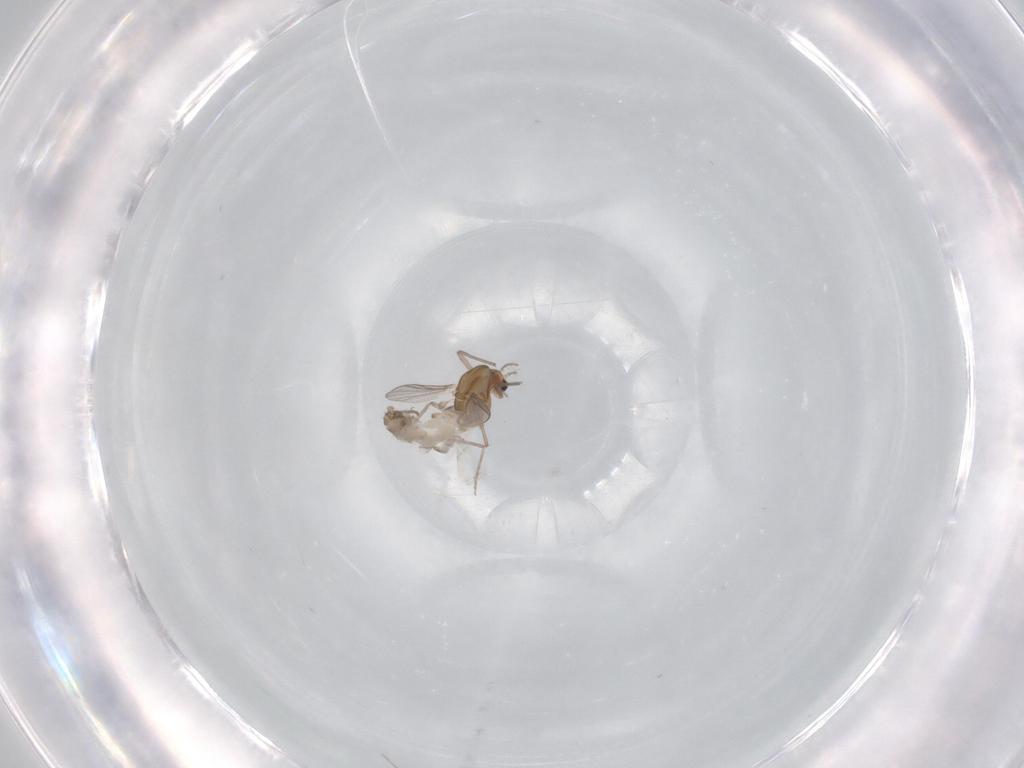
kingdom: Animalia
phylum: Arthropoda
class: Insecta
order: Diptera
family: Chironomidae
